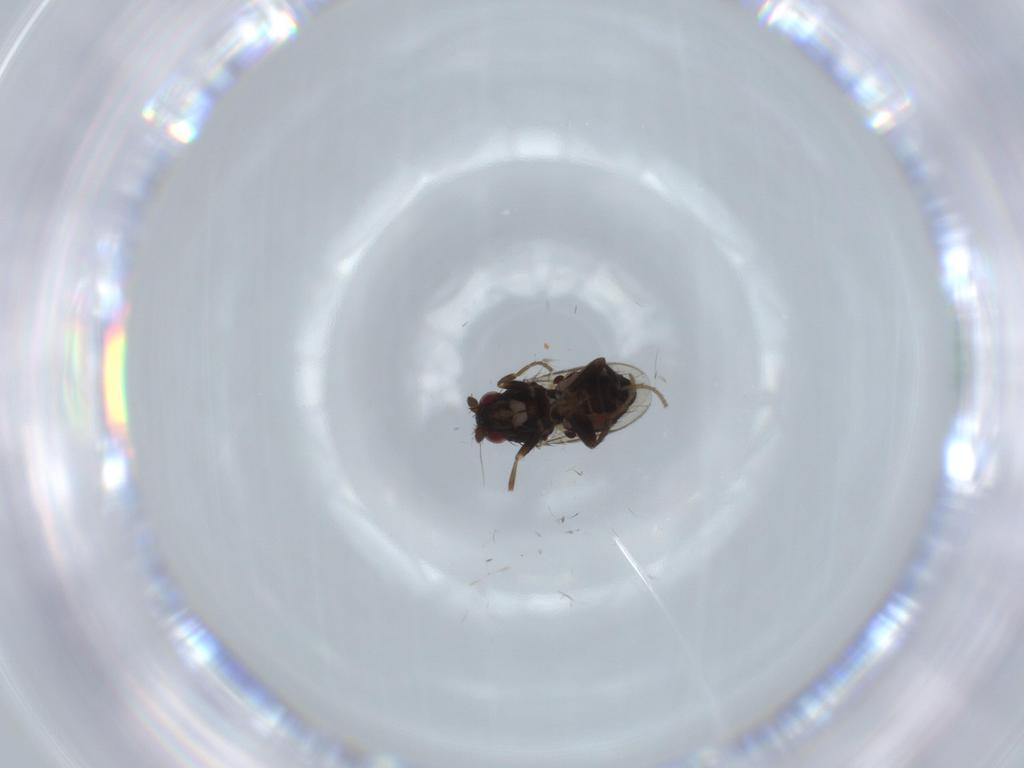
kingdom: Animalia
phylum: Arthropoda
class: Insecta
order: Diptera
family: Sphaeroceridae
